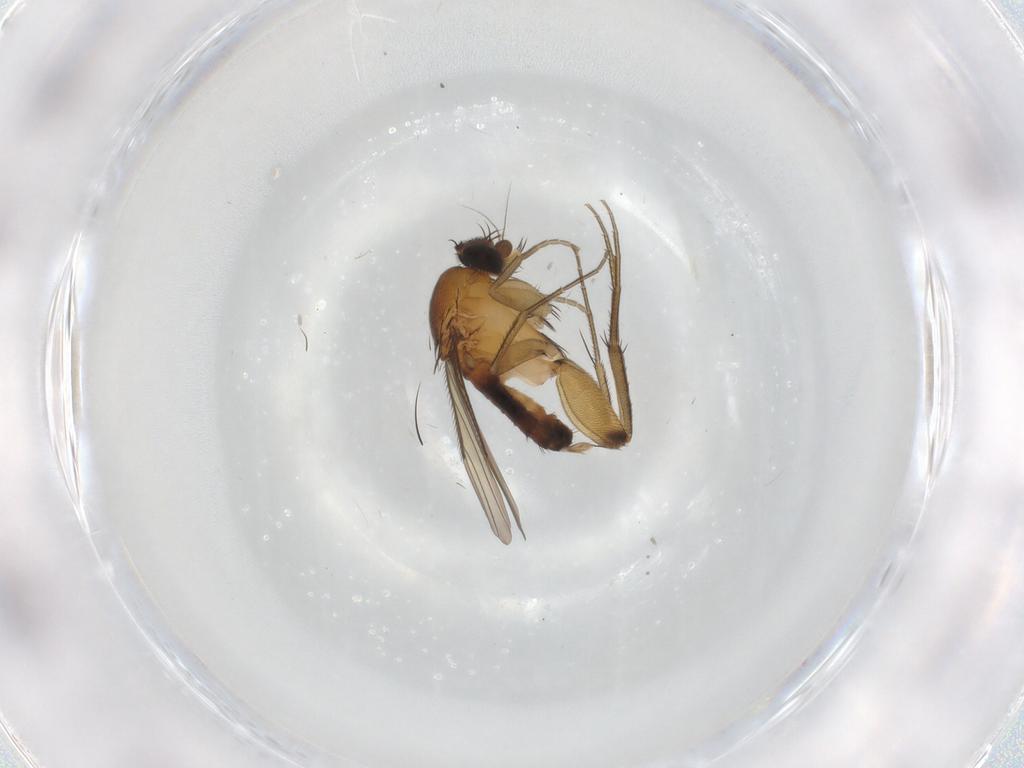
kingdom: Animalia
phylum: Arthropoda
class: Insecta
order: Diptera
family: Phoridae
